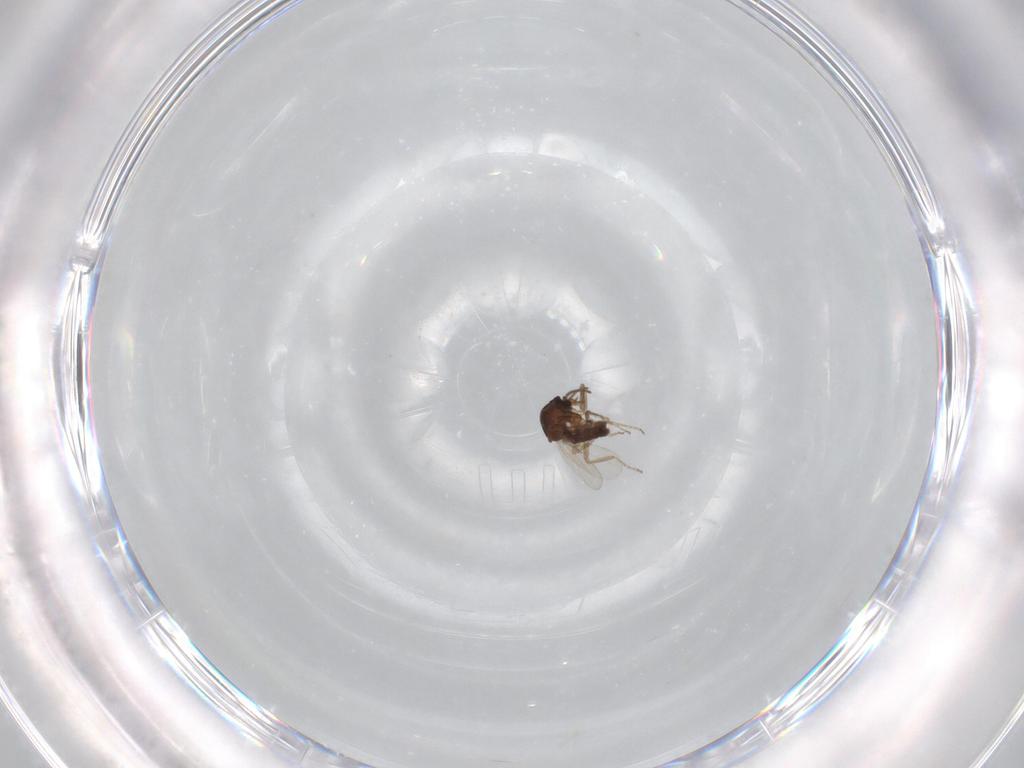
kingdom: Animalia
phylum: Arthropoda
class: Insecta
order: Diptera
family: Ceratopogonidae
